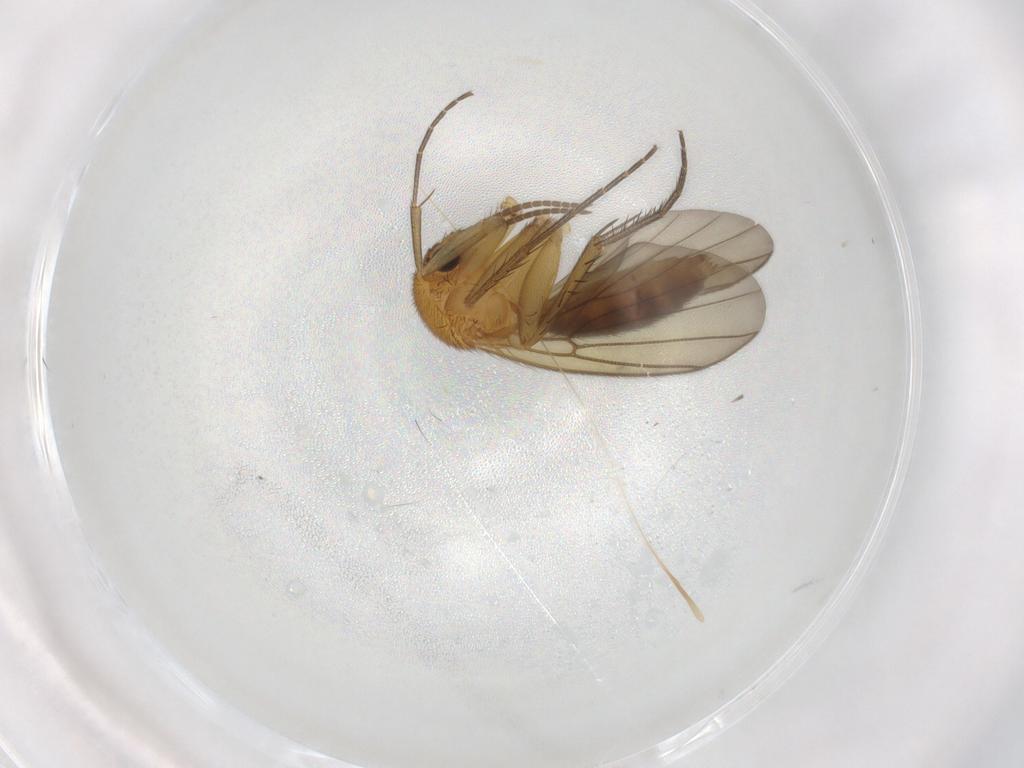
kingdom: Animalia
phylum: Arthropoda
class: Insecta
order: Diptera
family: Mycetophilidae
